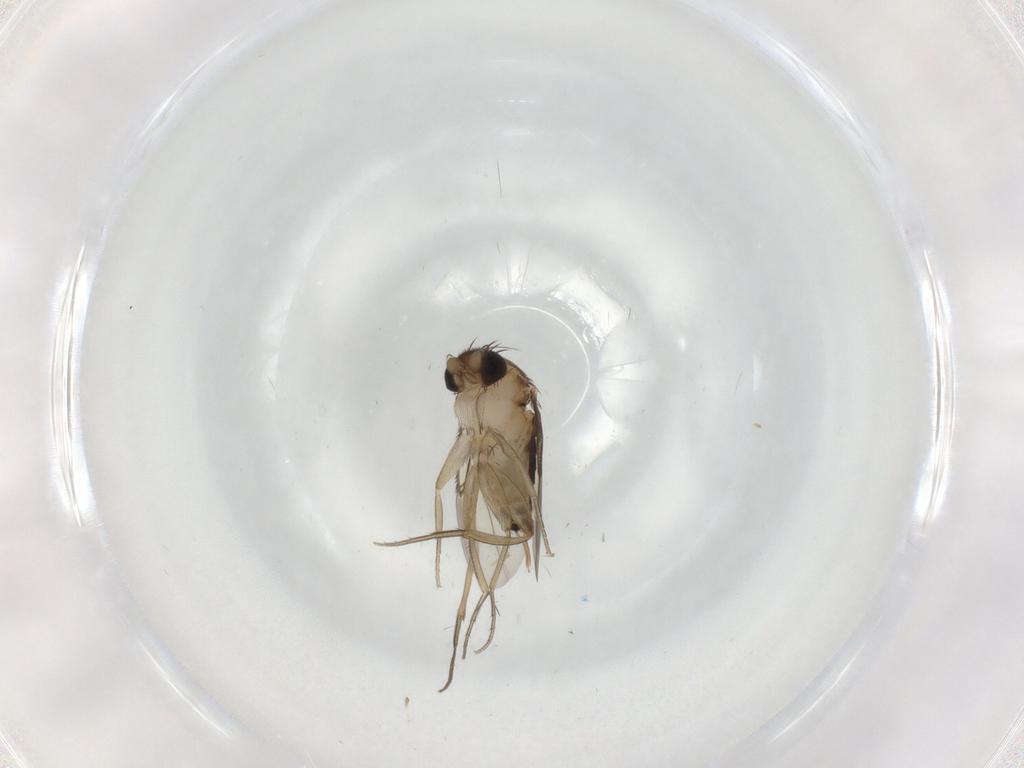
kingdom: Animalia
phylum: Arthropoda
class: Insecta
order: Diptera
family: Phoridae
